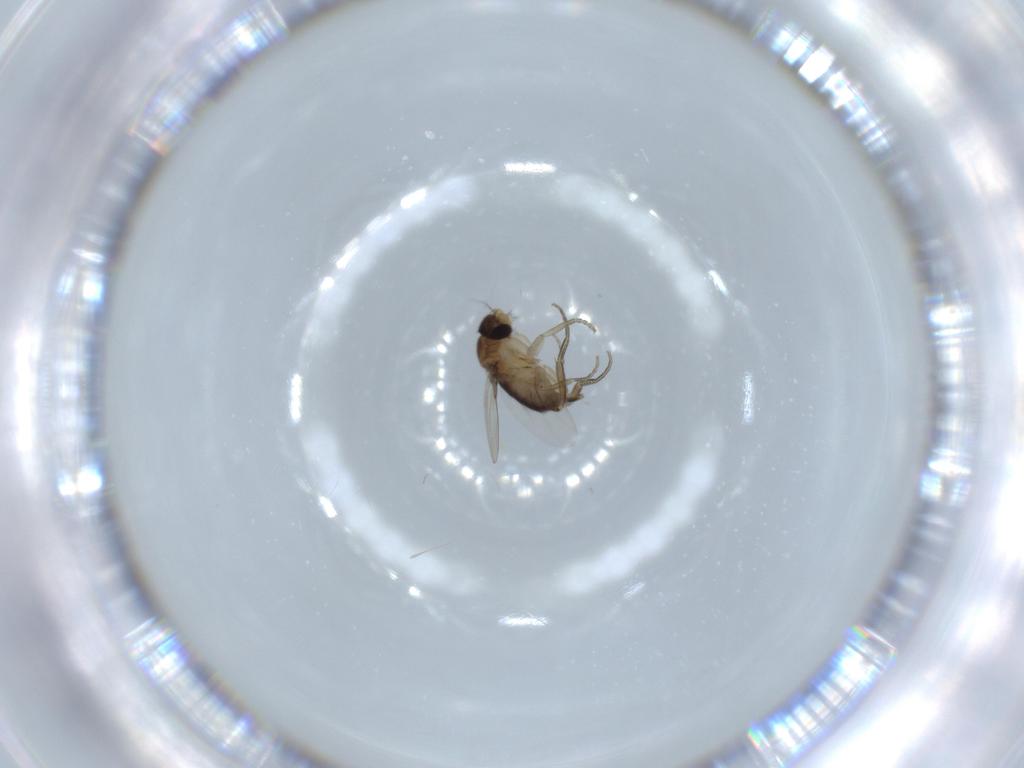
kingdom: Animalia
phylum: Arthropoda
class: Insecta
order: Diptera
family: Phoridae
